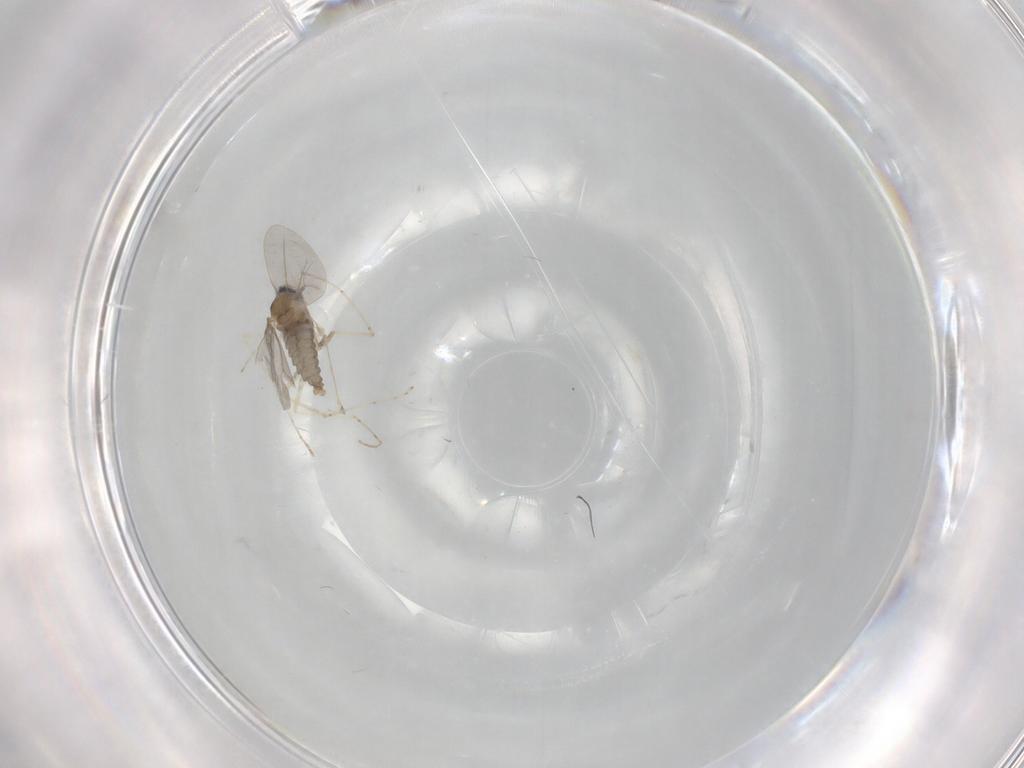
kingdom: Animalia
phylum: Arthropoda
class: Insecta
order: Diptera
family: Cecidomyiidae
